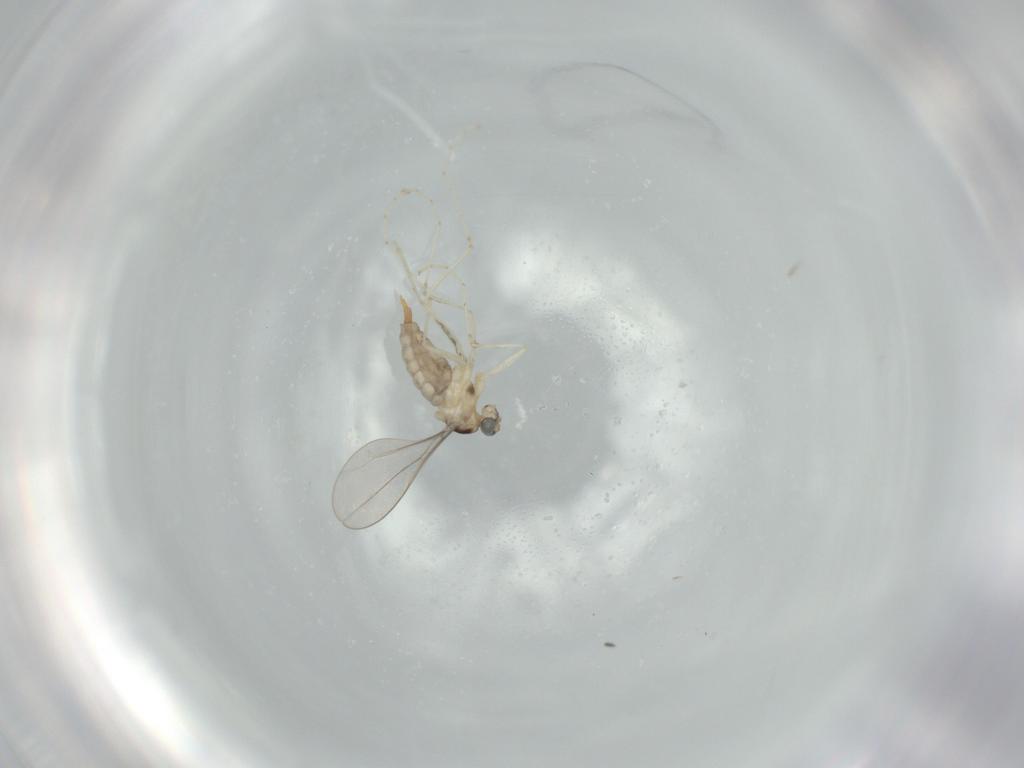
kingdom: Animalia
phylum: Arthropoda
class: Insecta
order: Diptera
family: Cecidomyiidae
